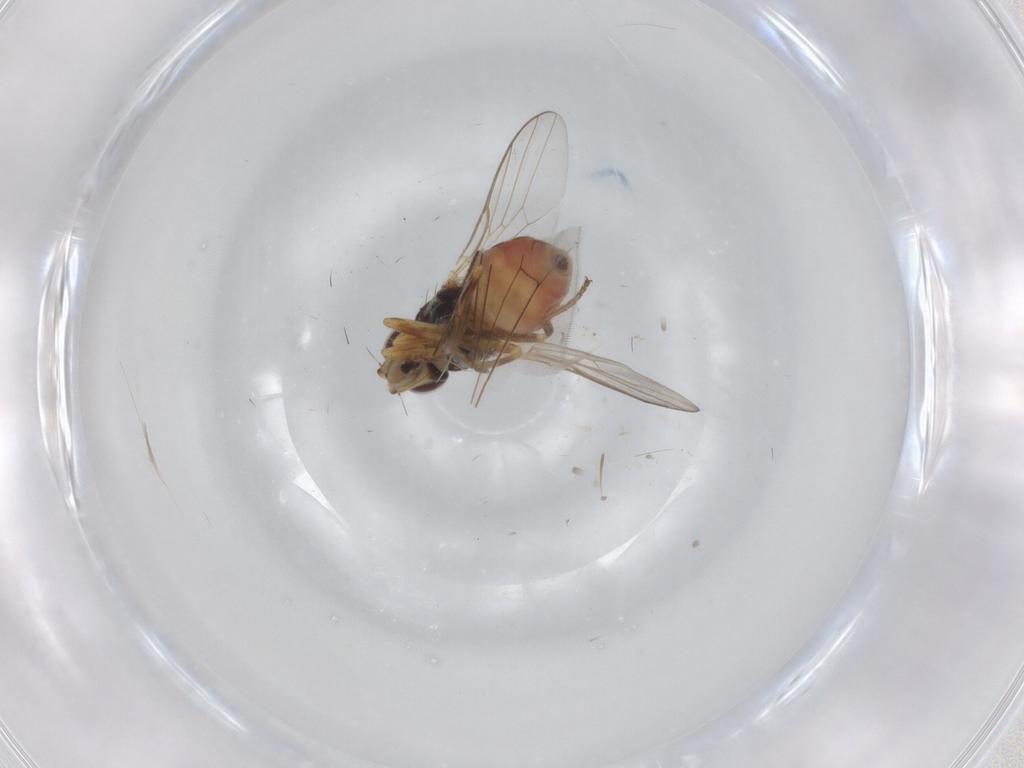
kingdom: Animalia
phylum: Arthropoda
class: Insecta
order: Diptera
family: Chloropidae
